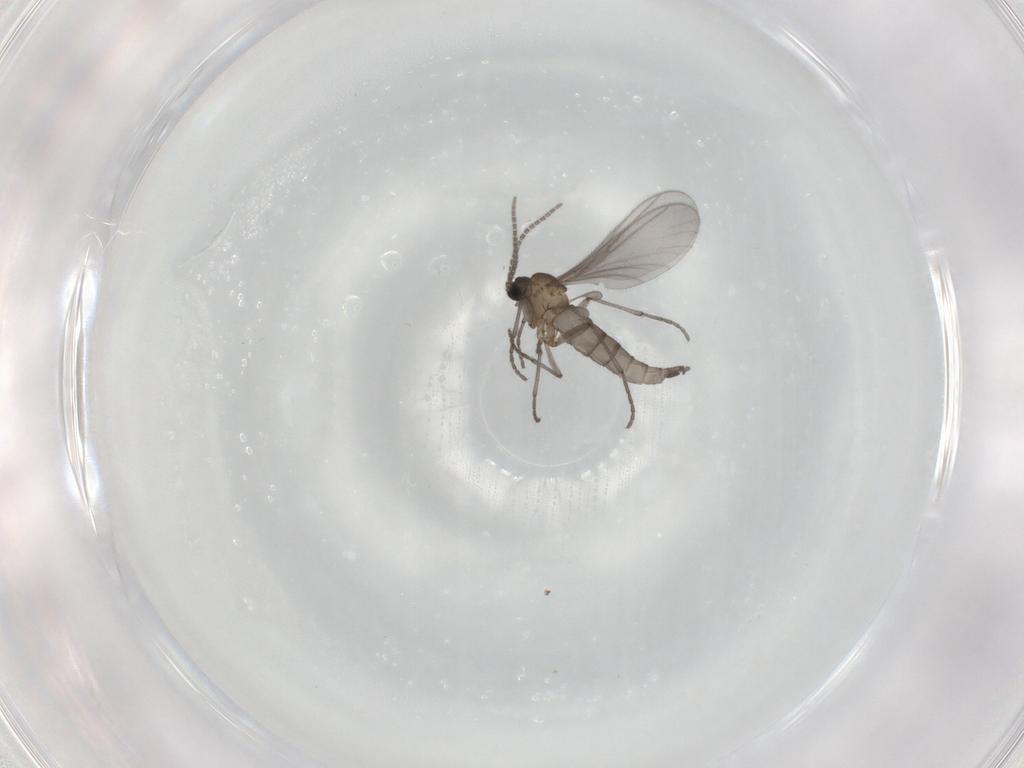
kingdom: Animalia
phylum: Arthropoda
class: Insecta
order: Diptera
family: Sciaridae
